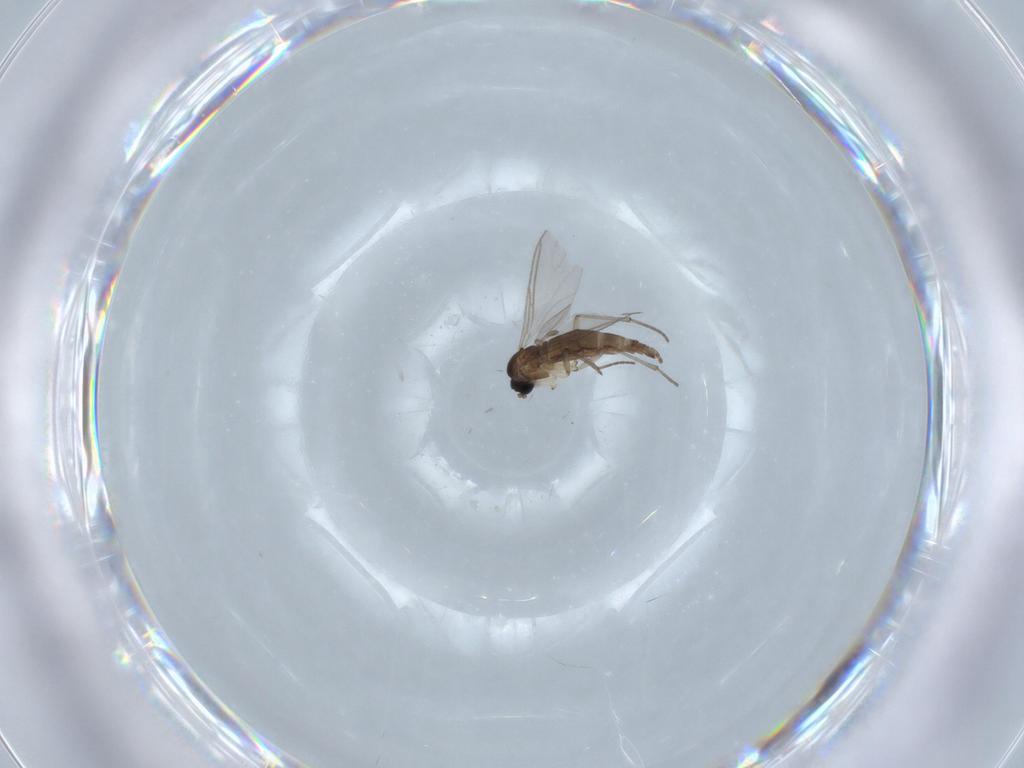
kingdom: Animalia
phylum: Arthropoda
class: Insecta
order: Diptera
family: Sciaridae
